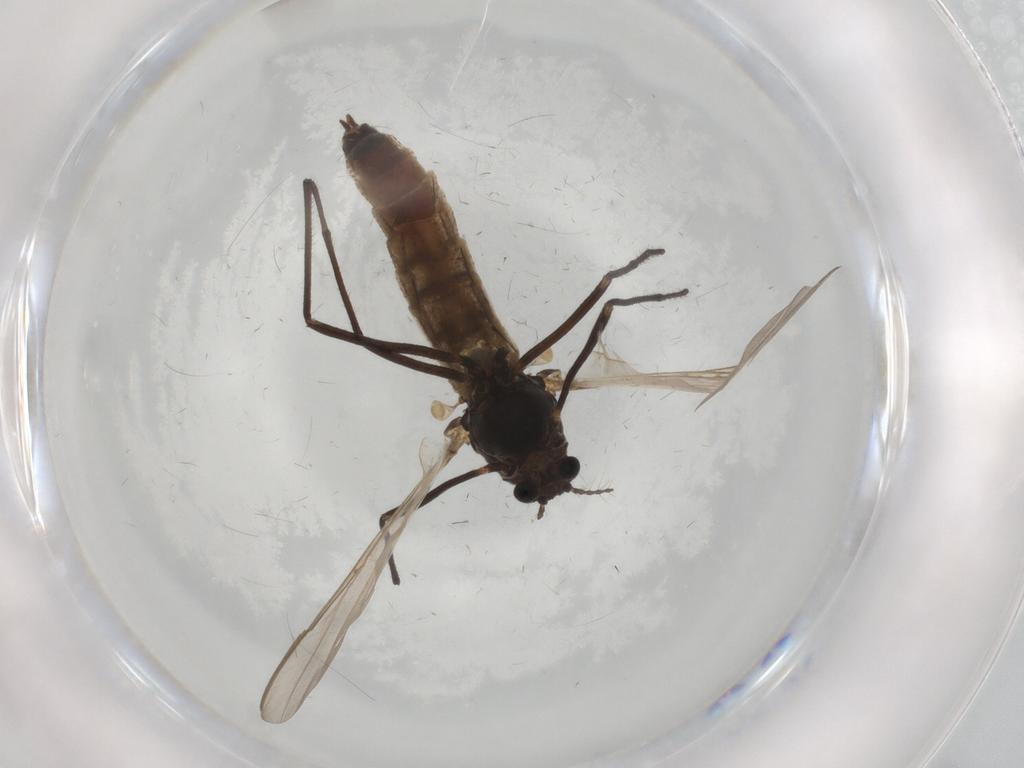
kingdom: Animalia
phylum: Arthropoda
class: Insecta
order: Diptera
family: Chironomidae
